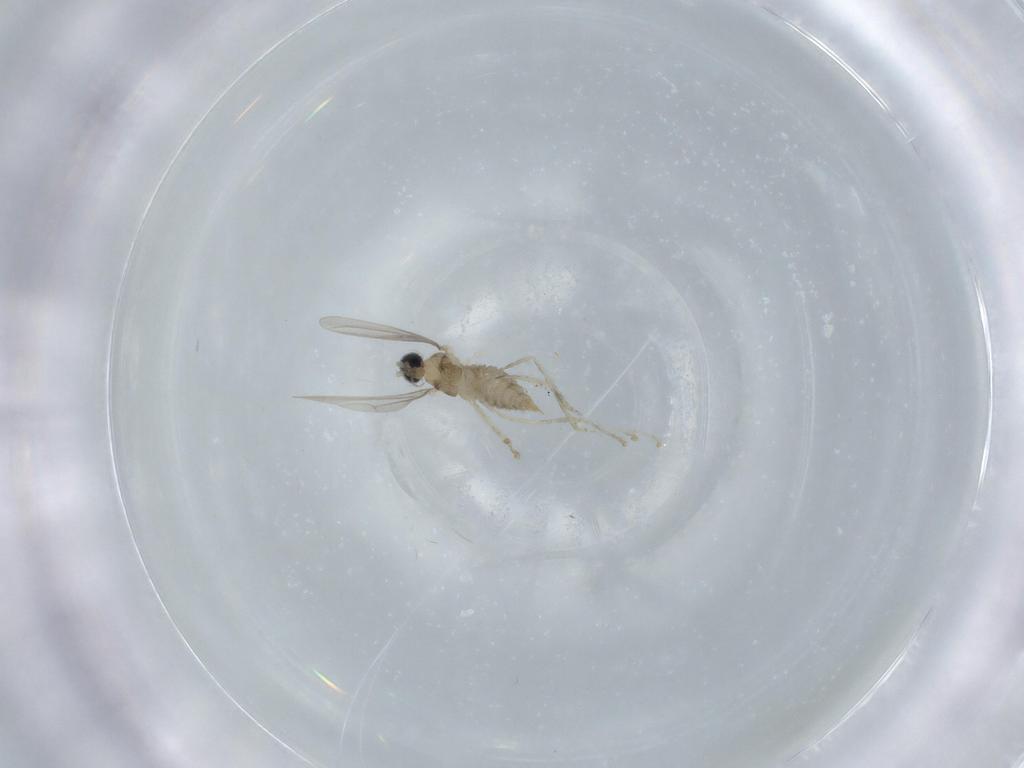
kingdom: Animalia
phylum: Arthropoda
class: Insecta
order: Diptera
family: Cecidomyiidae
